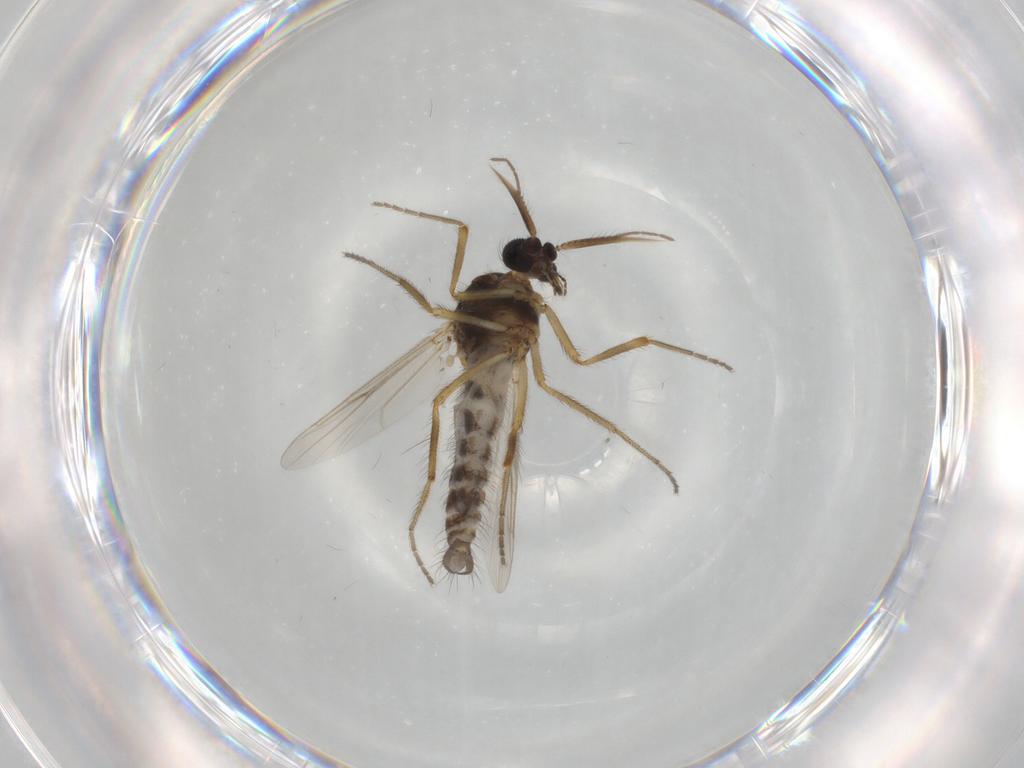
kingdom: Animalia
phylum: Arthropoda
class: Insecta
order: Diptera
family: Ceratopogonidae
